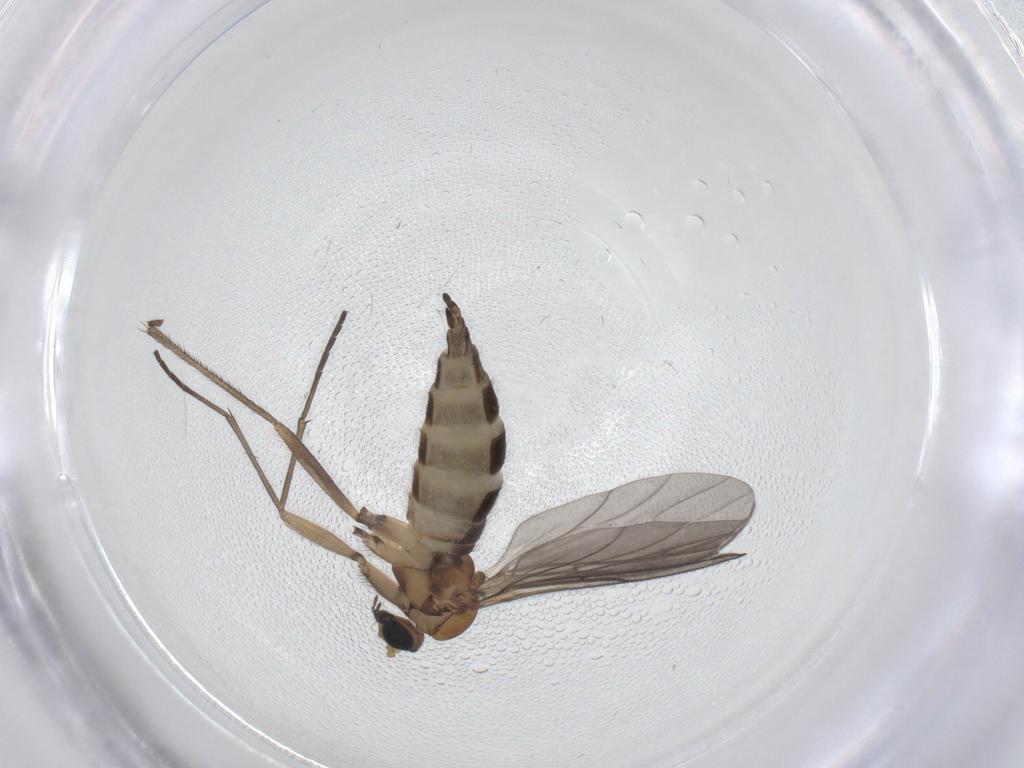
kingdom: Animalia
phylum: Arthropoda
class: Insecta
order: Diptera
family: Sciaridae
